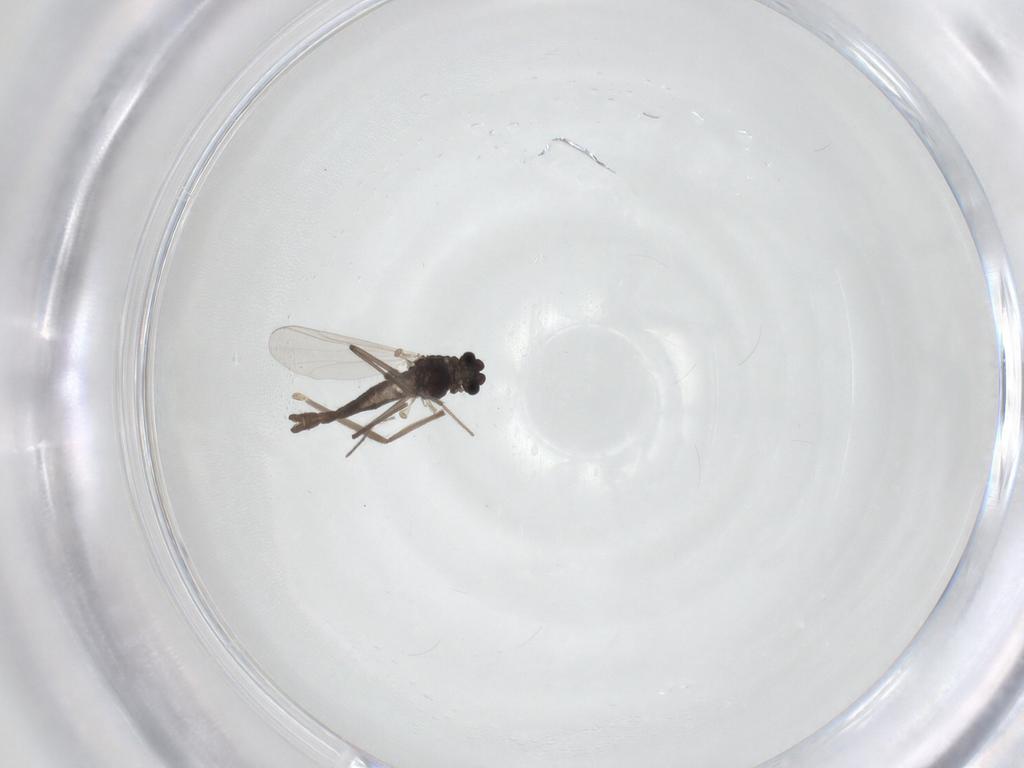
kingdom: Animalia
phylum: Arthropoda
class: Insecta
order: Diptera
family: Chironomidae
